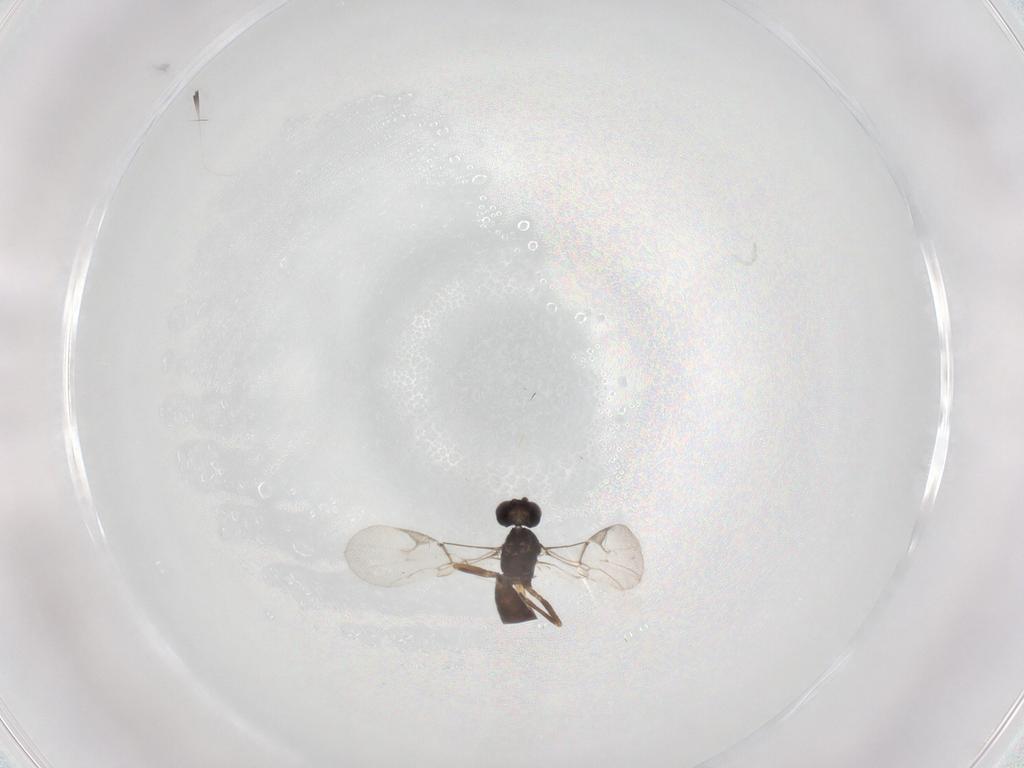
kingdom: Animalia
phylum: Arthropoda
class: Insecta
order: Hymenoptera
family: Braconidae
